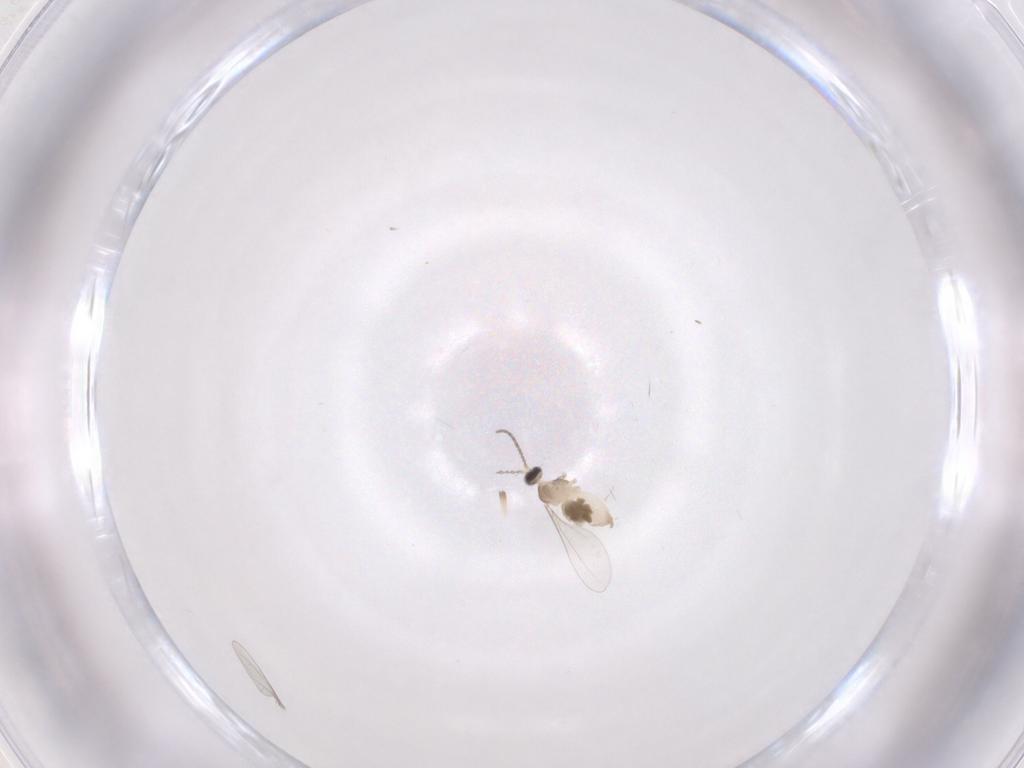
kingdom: Animalia
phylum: Arthropoda
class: Insecta
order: Diptera
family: Cecidomyiidae
